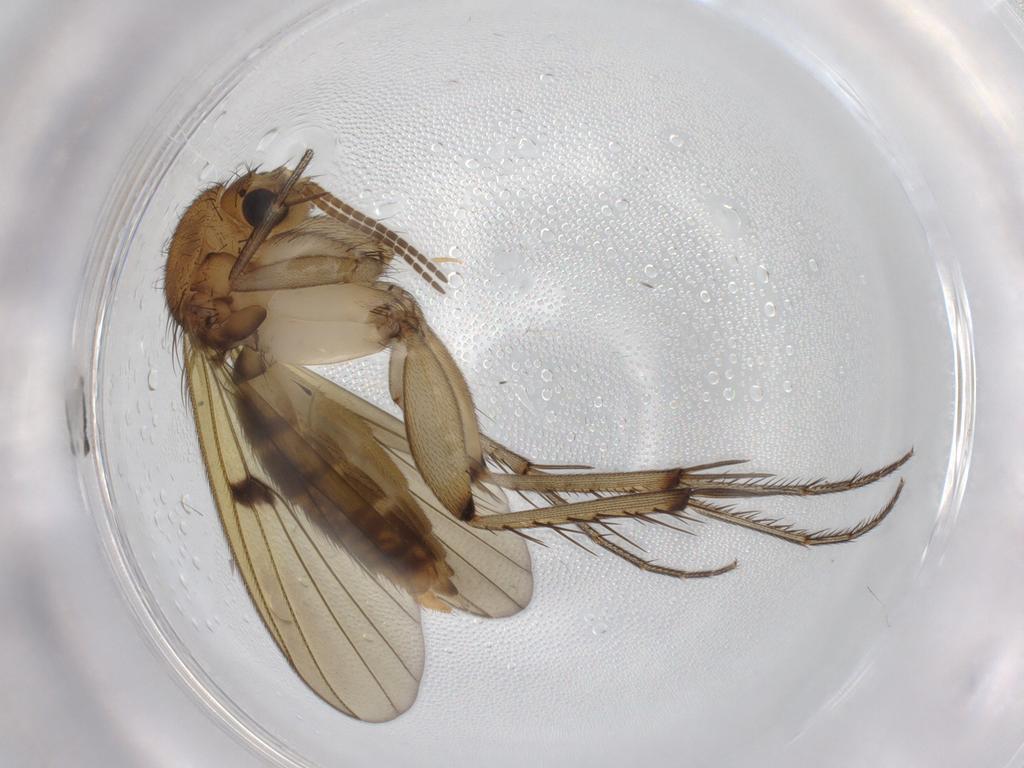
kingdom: Animalia
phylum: Arthropoda
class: Insecta
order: Diptera
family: Mycetophilidae
